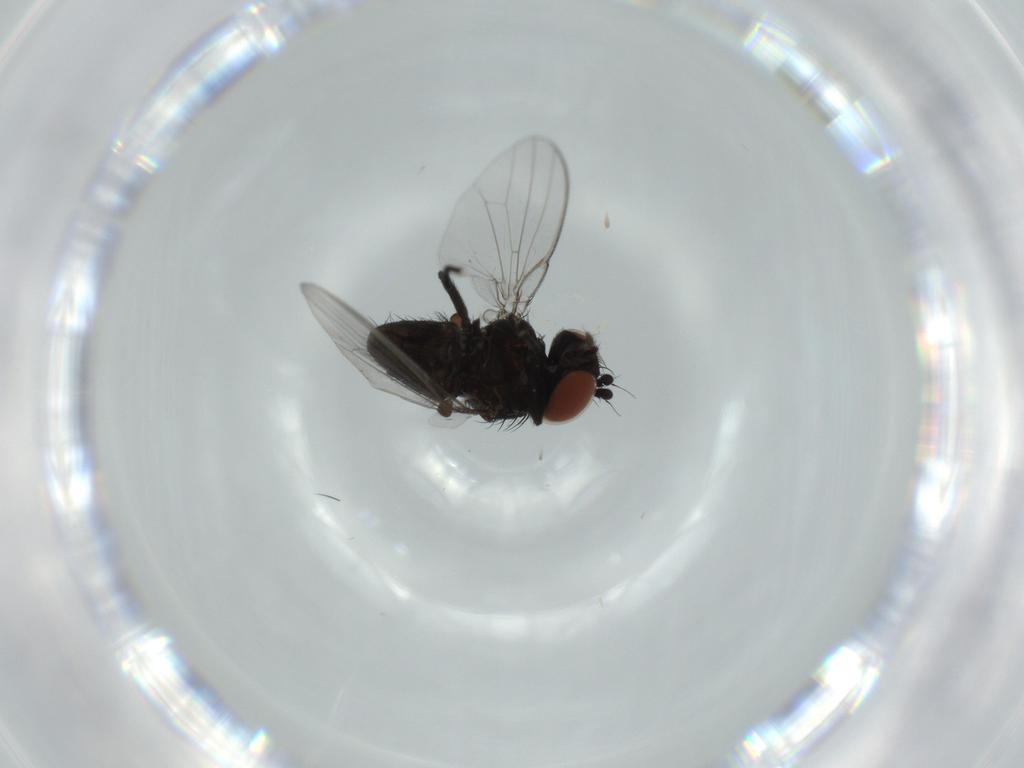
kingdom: Animalia
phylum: Arthropoda
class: Insecta
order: Diptera
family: Milichiidae
